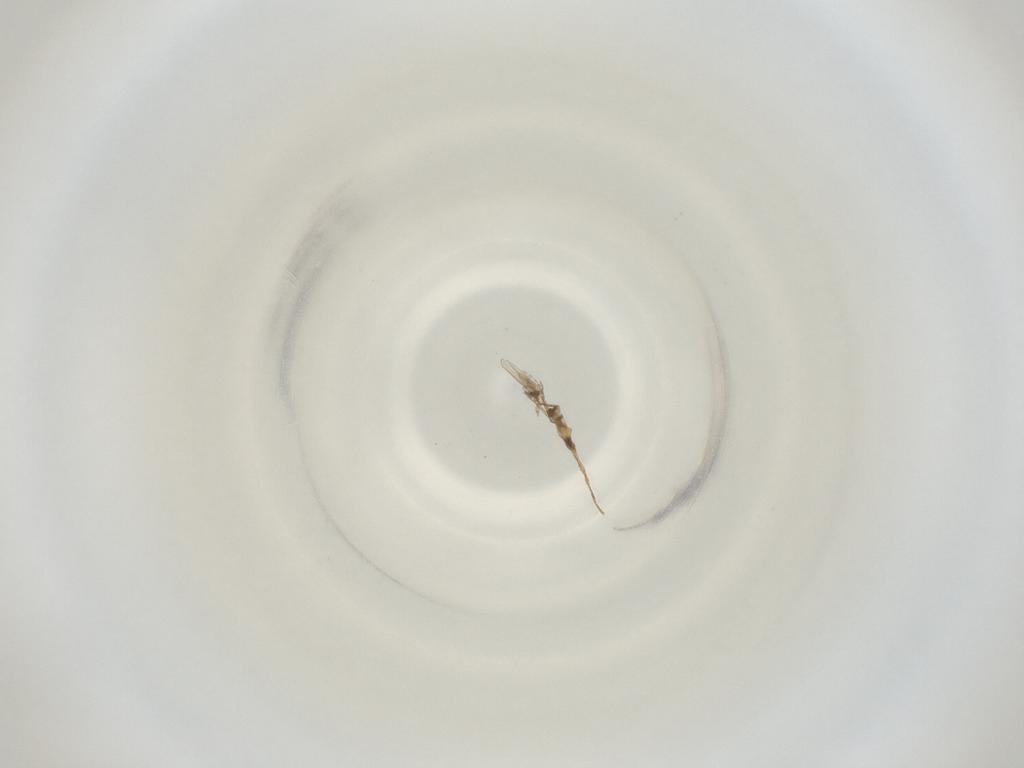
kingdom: Animalia
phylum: Arthropoda
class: Insecta
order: Diptera
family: Cecidomyiidae
